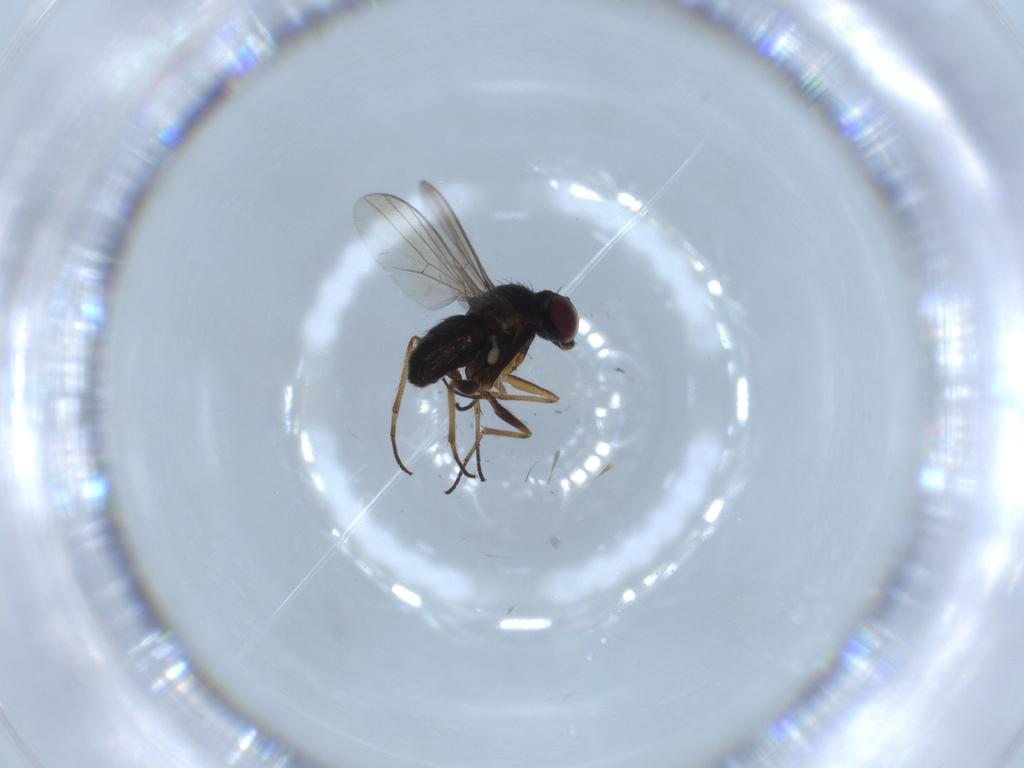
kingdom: Animalia
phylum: Arthropoda
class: Insecta
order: Diptera
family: Dolichopodidae
